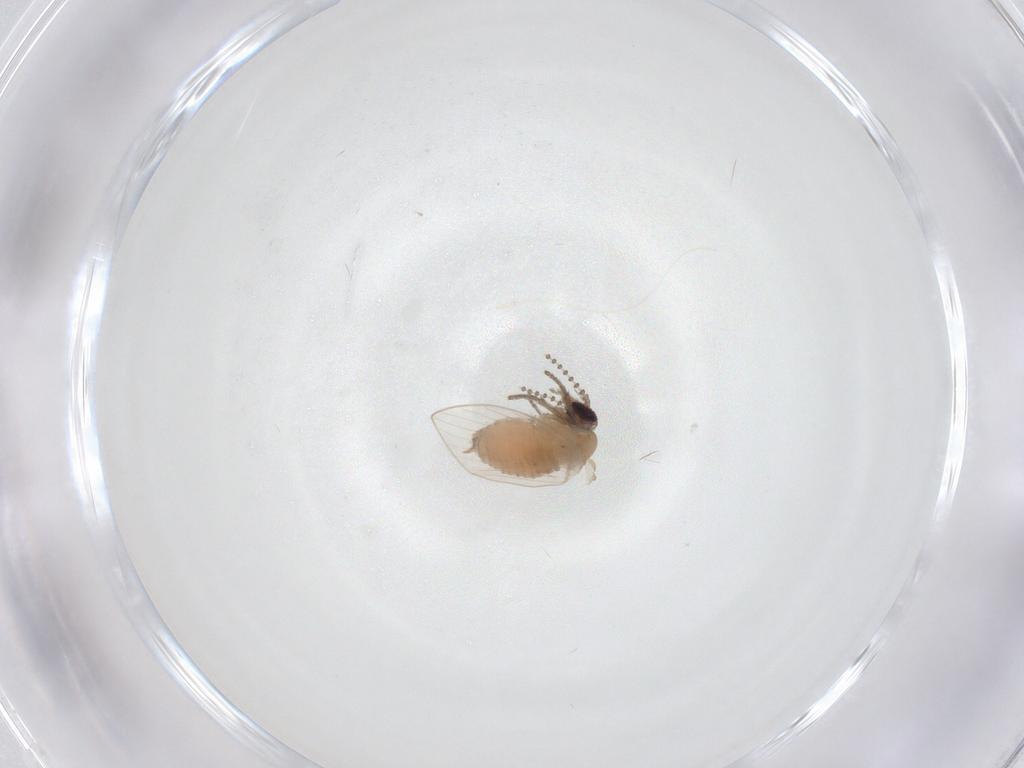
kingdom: Animalia
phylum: Arthropoda
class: Insecta
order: Diptera
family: Psychodidae
